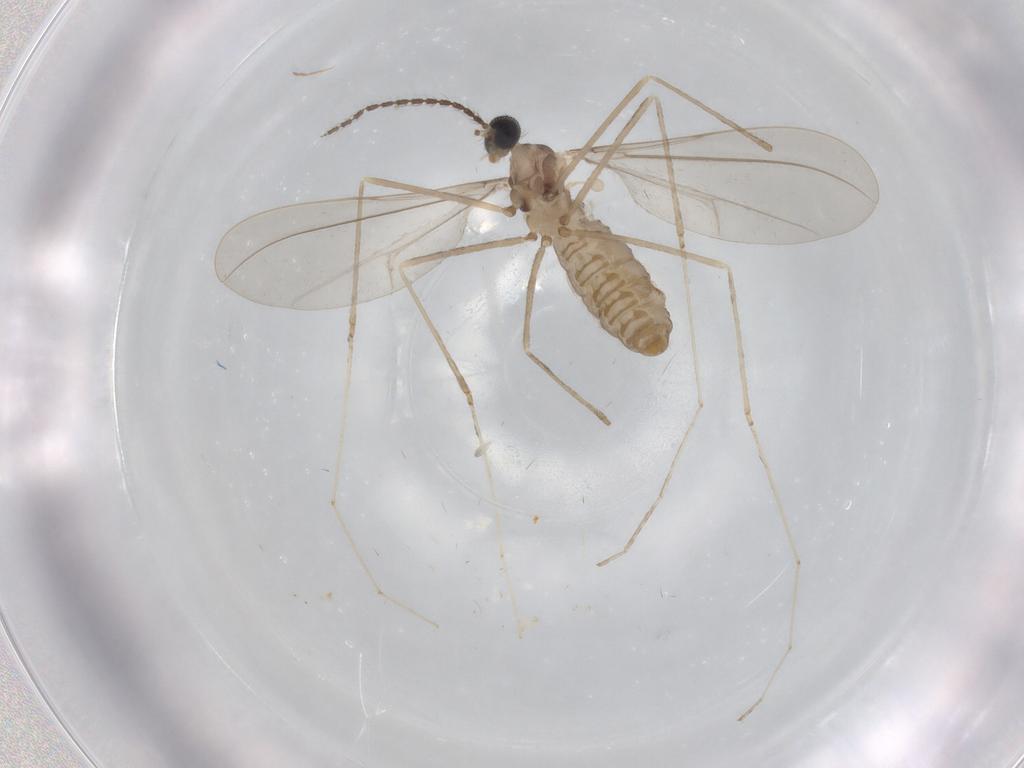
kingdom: Animalia
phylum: Arthropoda
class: Insecta
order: Diptera
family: Cecidomyiidae
